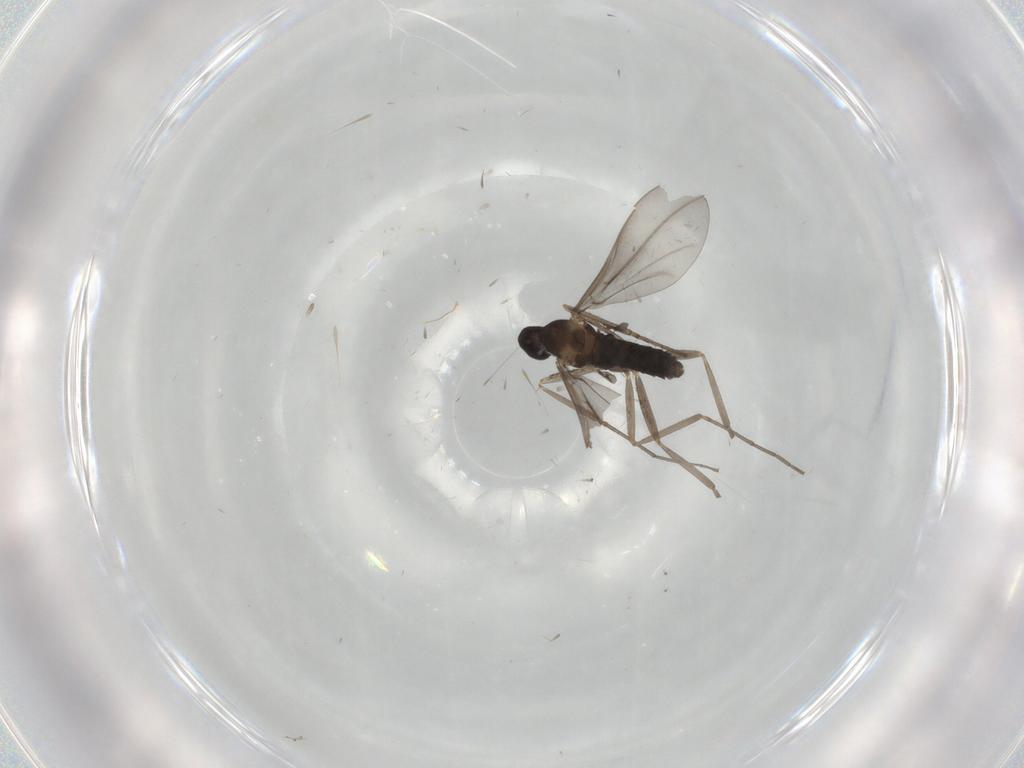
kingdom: Animalia
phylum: Arthropoda
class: Insecta
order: Diptera
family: Cecidomyiidae
